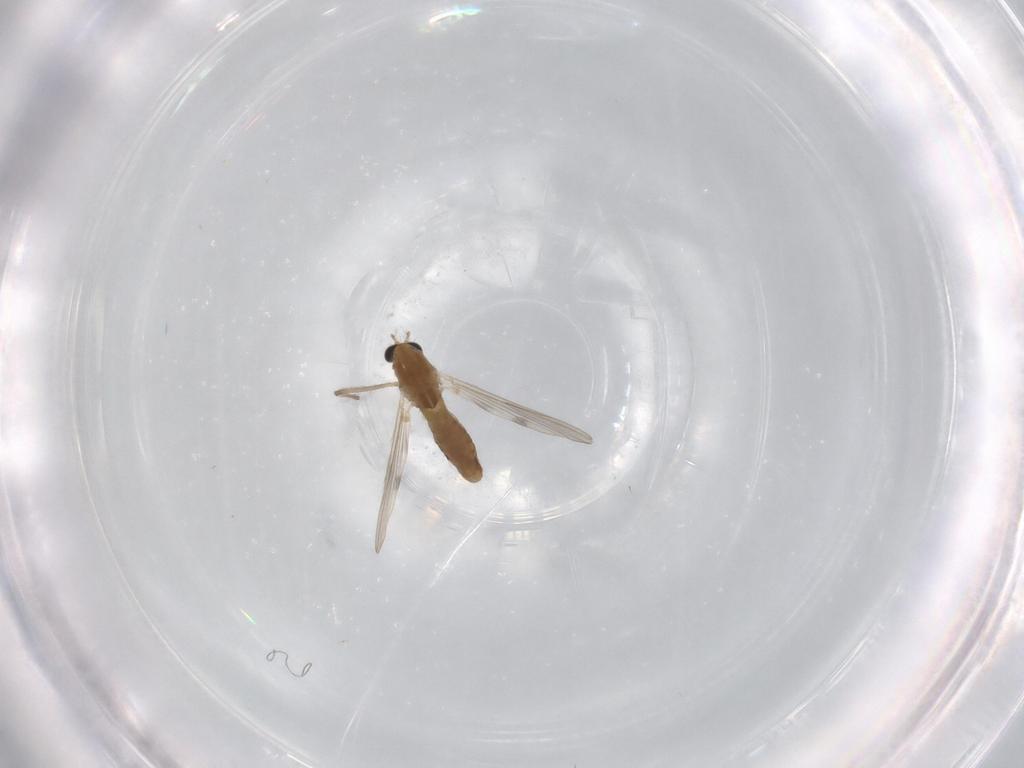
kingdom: Animalia
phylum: Arthropoda
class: Insecta
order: Diptera
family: Chironomidae
